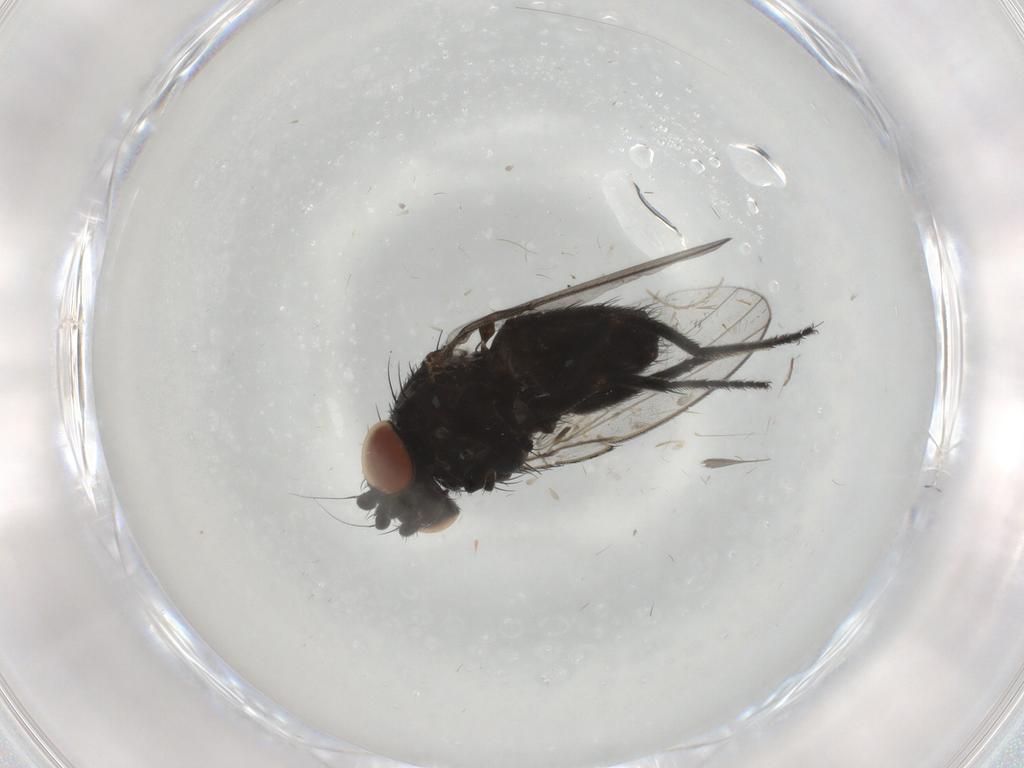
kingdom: Animalia
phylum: Arthropoda
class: Insecta
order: Diptera
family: Milichiidae
